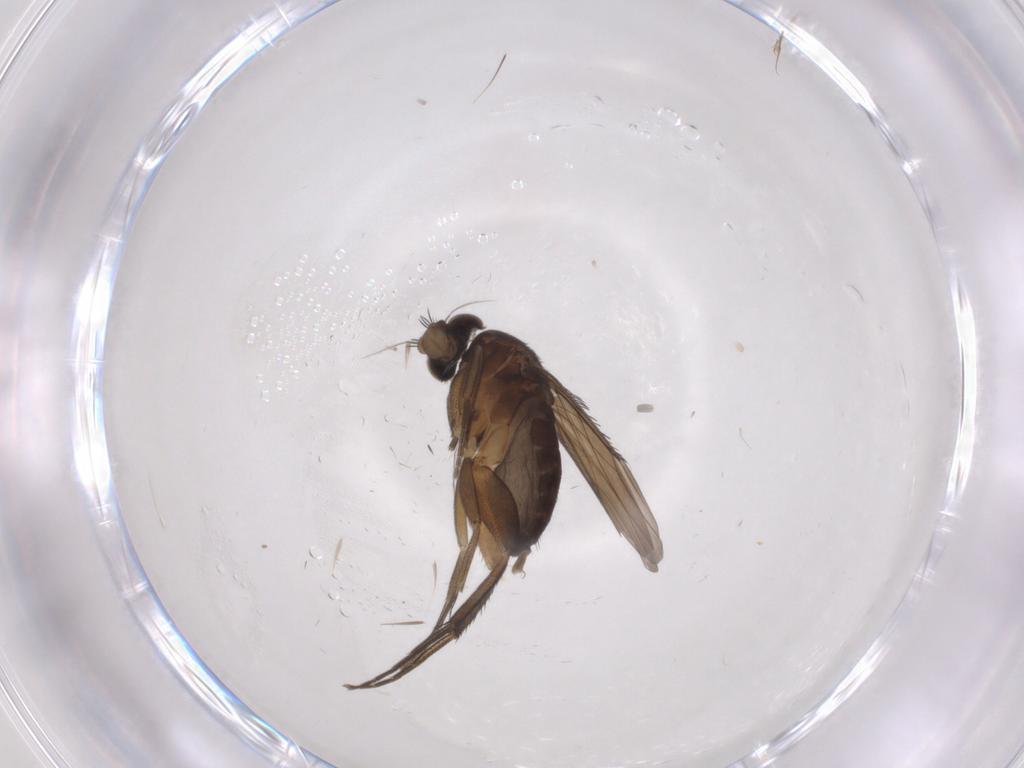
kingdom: Animalia
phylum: Arthropoda
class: Insecta
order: Diptera
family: Phoridae
